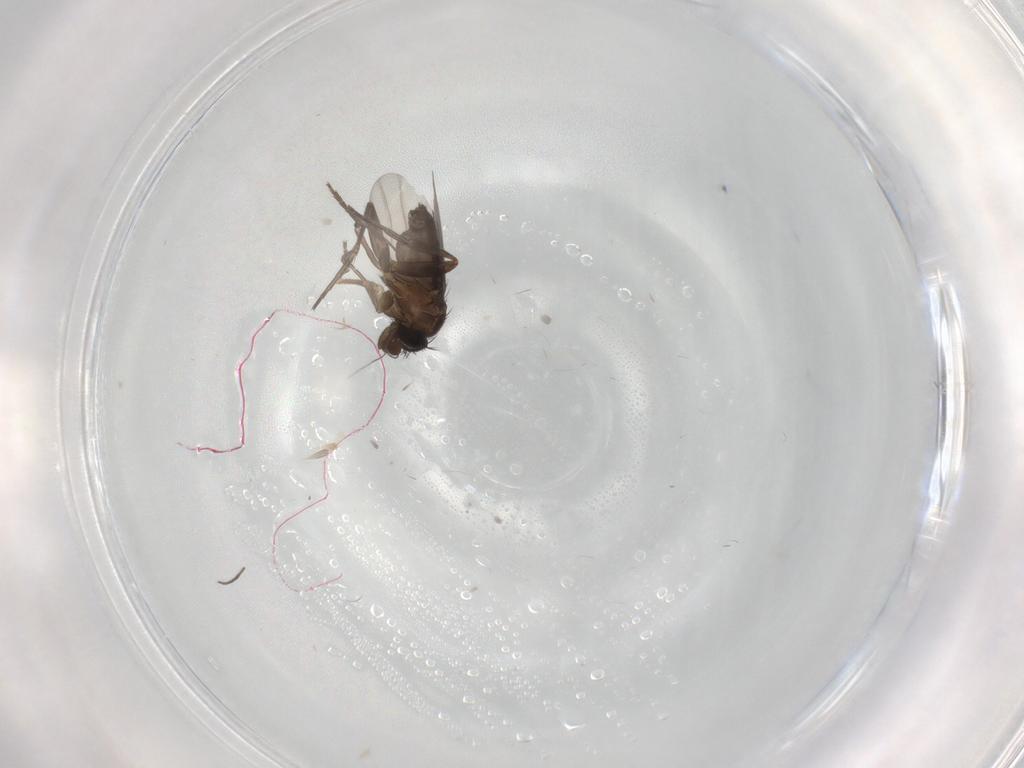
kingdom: Animalia
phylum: Arthropoda
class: Insecta
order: Diptera
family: Phoridae
